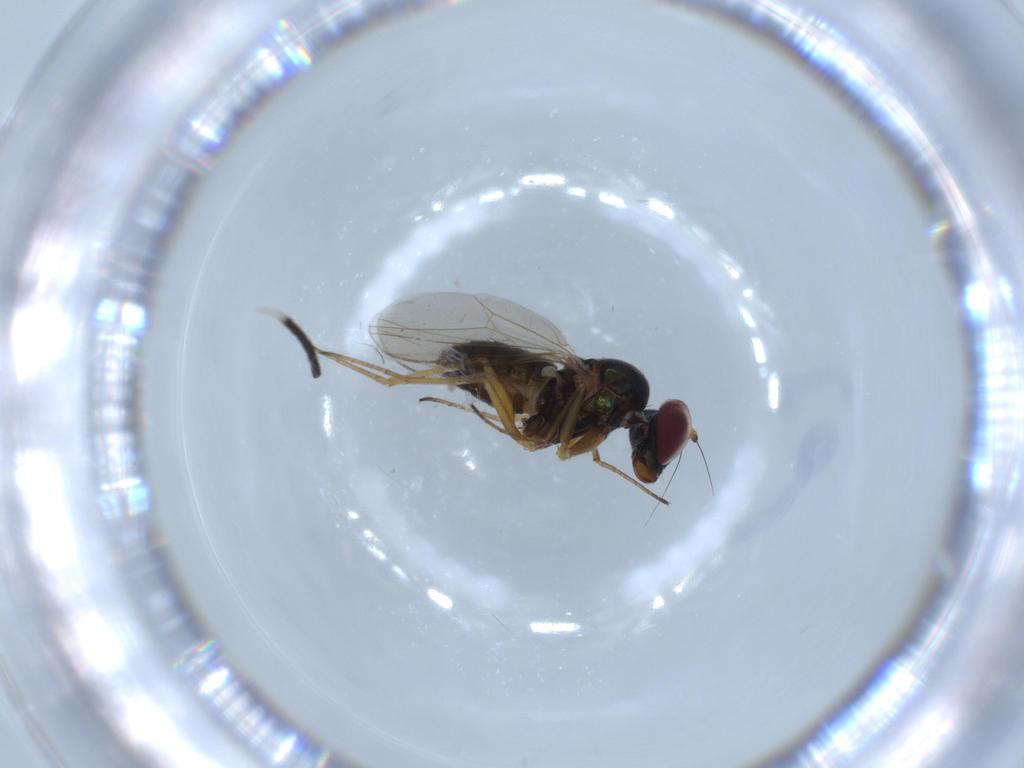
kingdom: Animalia
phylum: Arthropoda
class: Insecta
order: Diptera
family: Mycetophilidae
